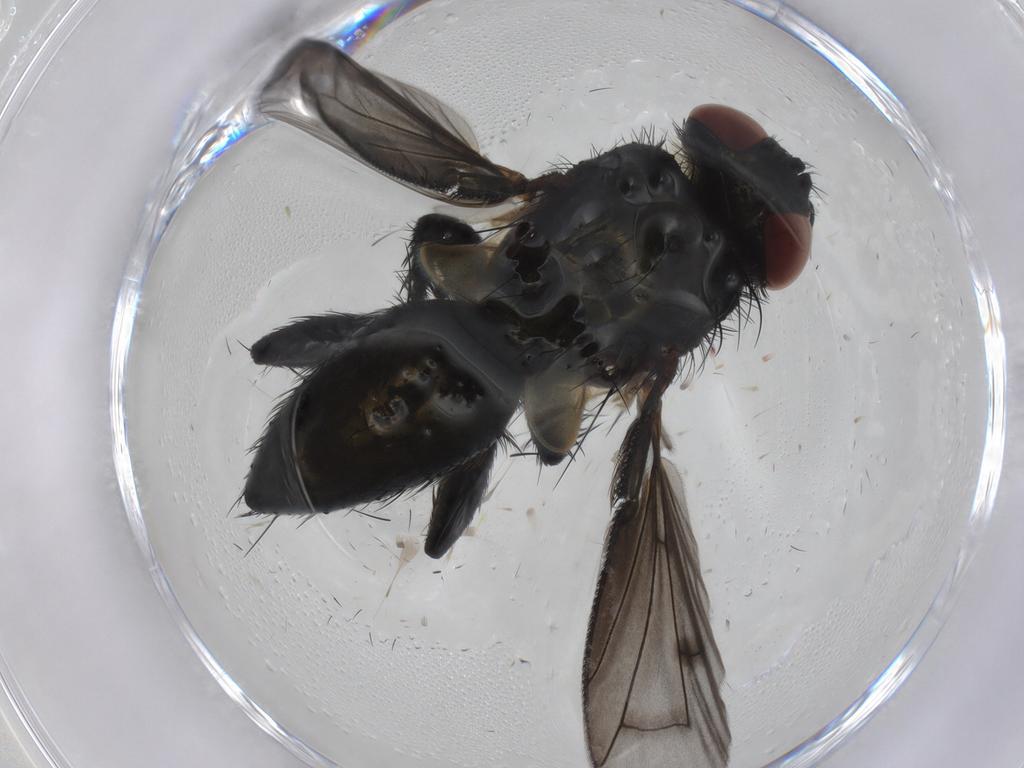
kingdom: Animalia
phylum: Arthropoda
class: Insecta
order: Diptera
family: Tachinidae
